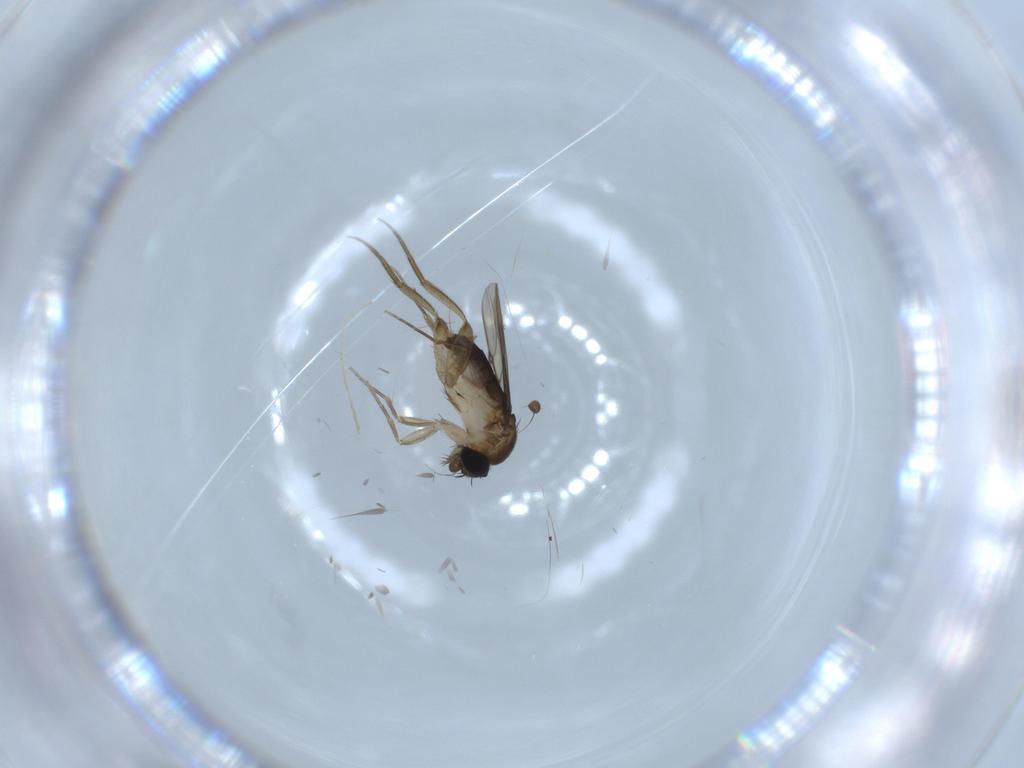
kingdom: Animalia
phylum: Arthropoda
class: Insecta
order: Diptera
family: Phoridae
